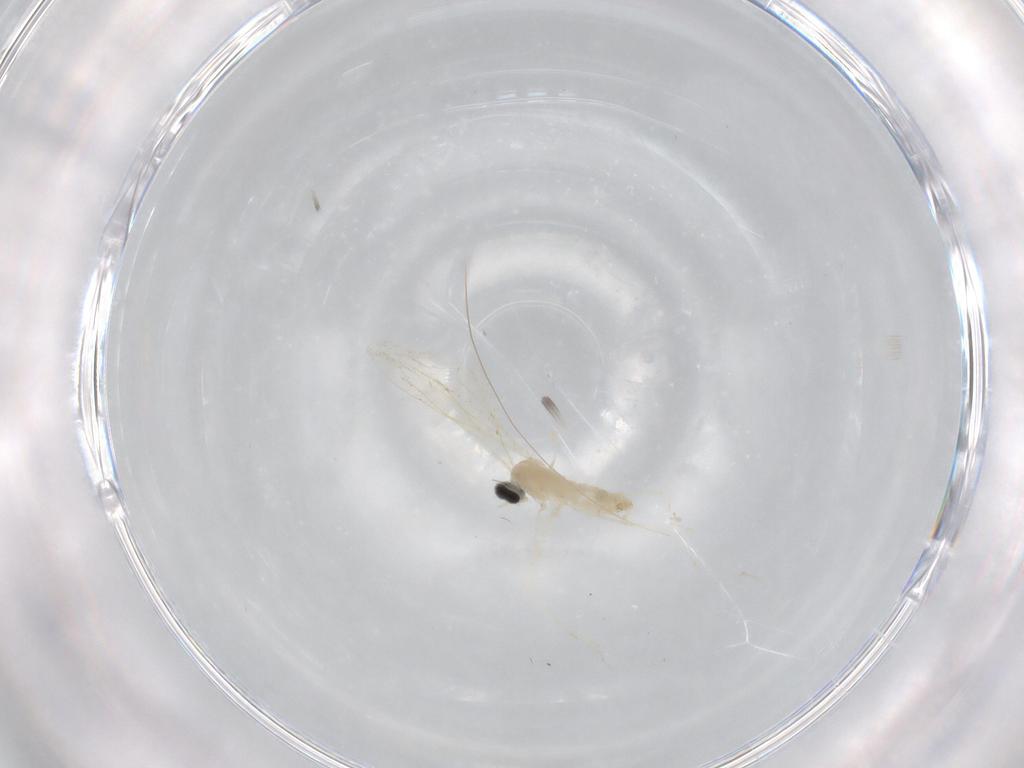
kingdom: Animalia
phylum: Arthropoda
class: Insecta
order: Diptera
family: Cecidomyiidae
